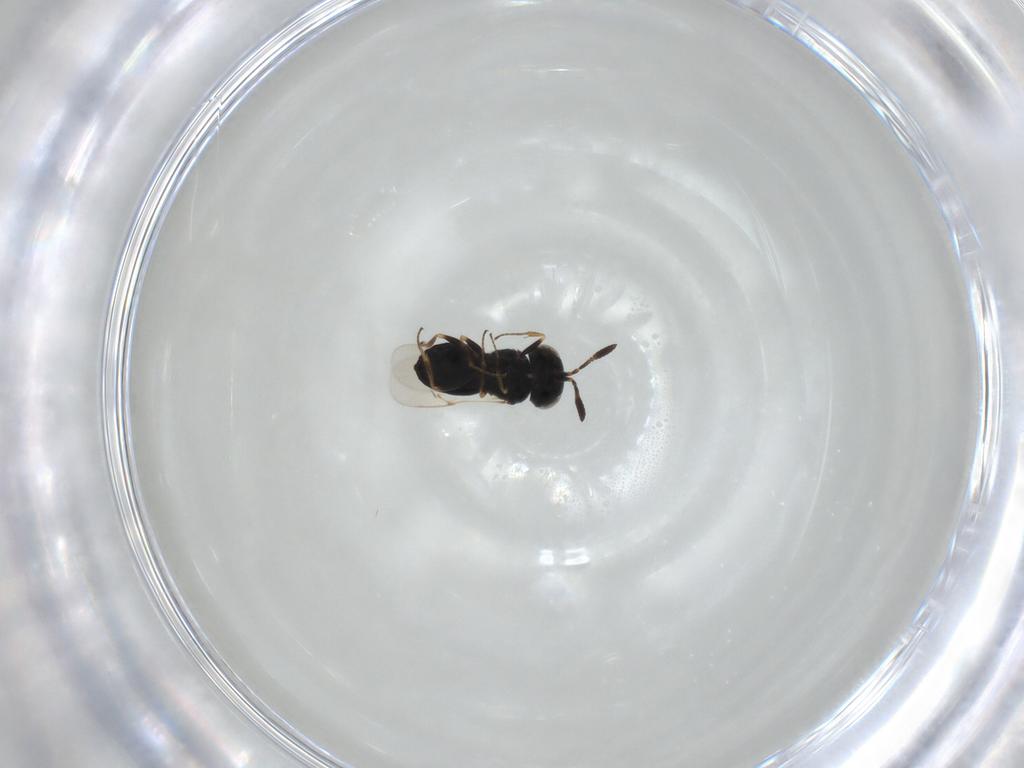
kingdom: Animalia
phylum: Arthropoda
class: Insecta
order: Hymenoptera
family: Scelionidae
